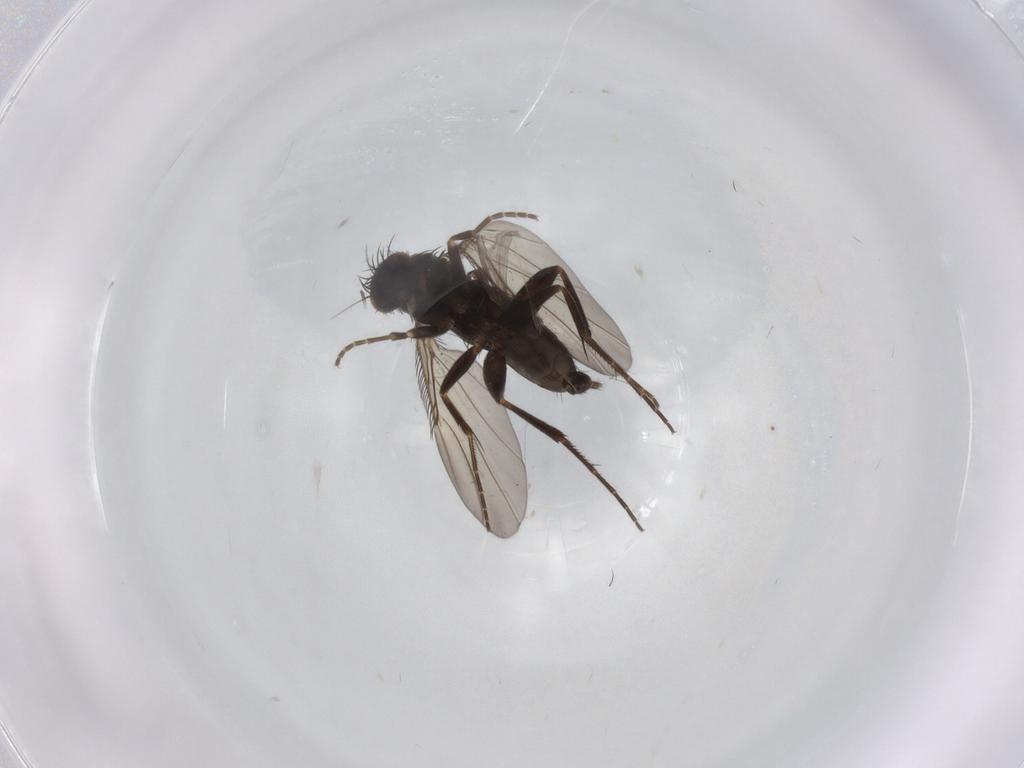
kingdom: Animalia
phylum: Arthropoda
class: Insecta
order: Diptera
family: Phoridae
